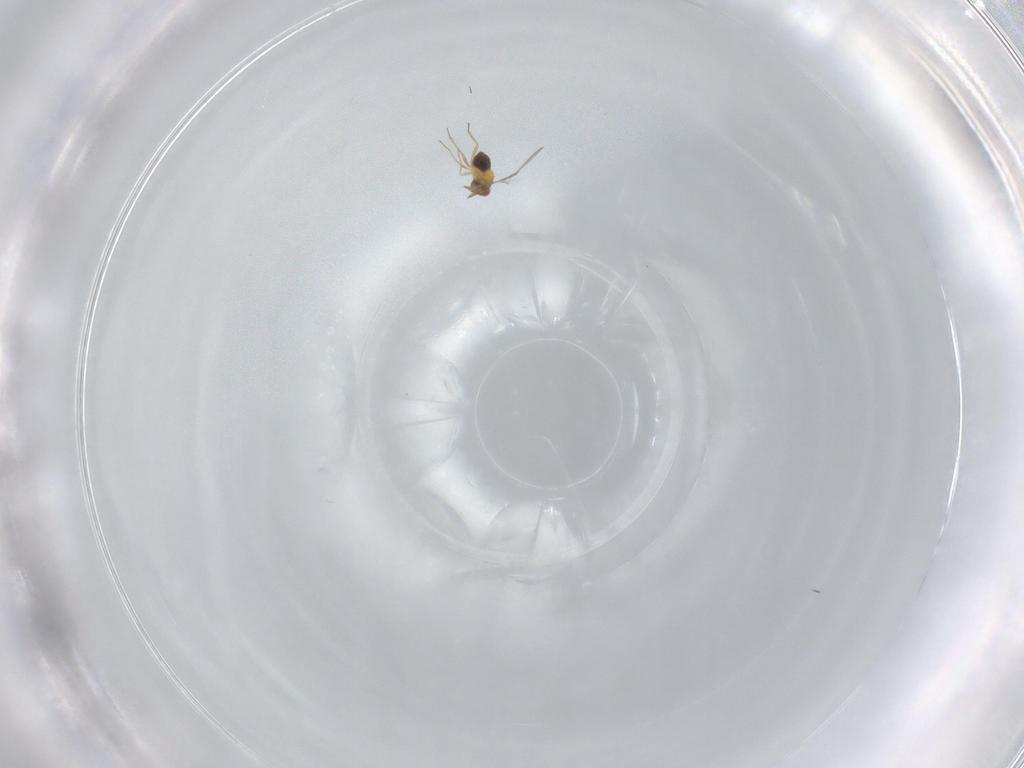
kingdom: Animalia
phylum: Arthropoda
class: Insecta
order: Hymenoptera
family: Trichogrammatidae
